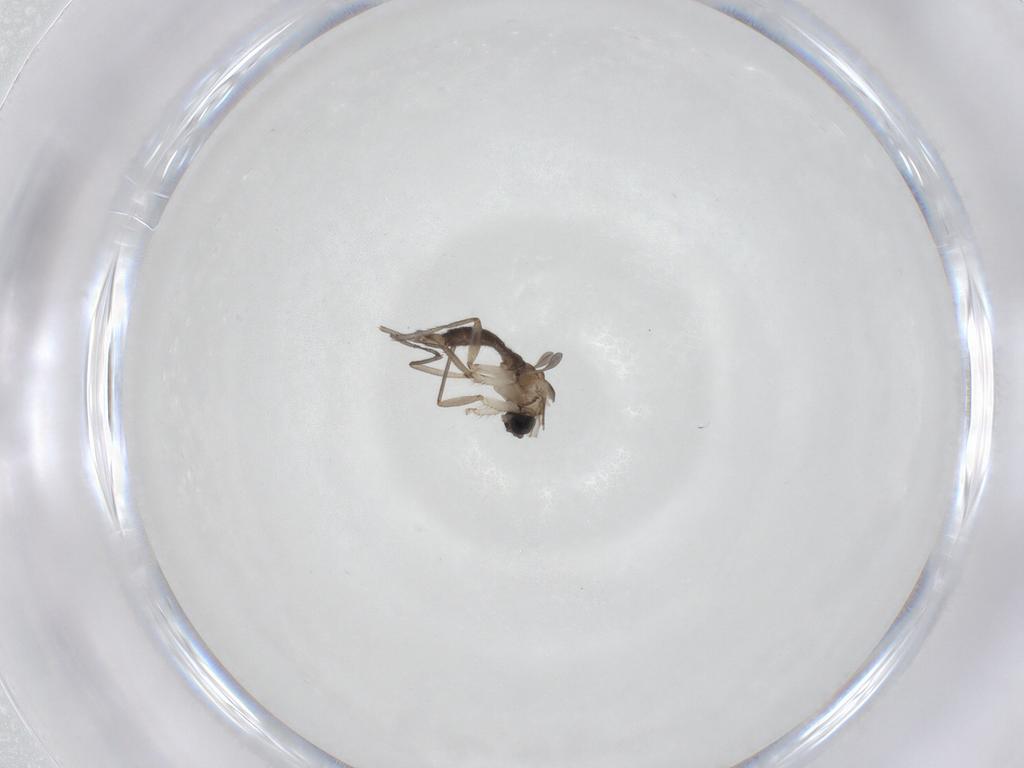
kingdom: Animalia
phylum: Arthropoda
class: Insecta
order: Diptera
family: Sciaridae
